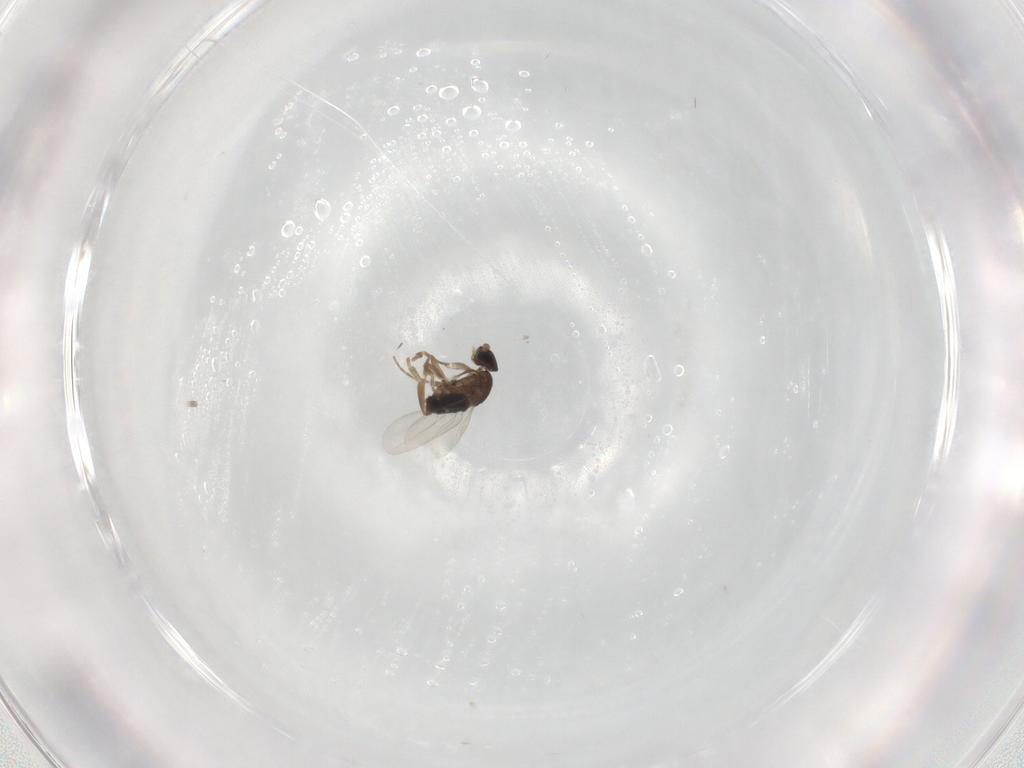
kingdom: Animalia
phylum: Arthropoda
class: Insecta
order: Diptera
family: Phoridae
